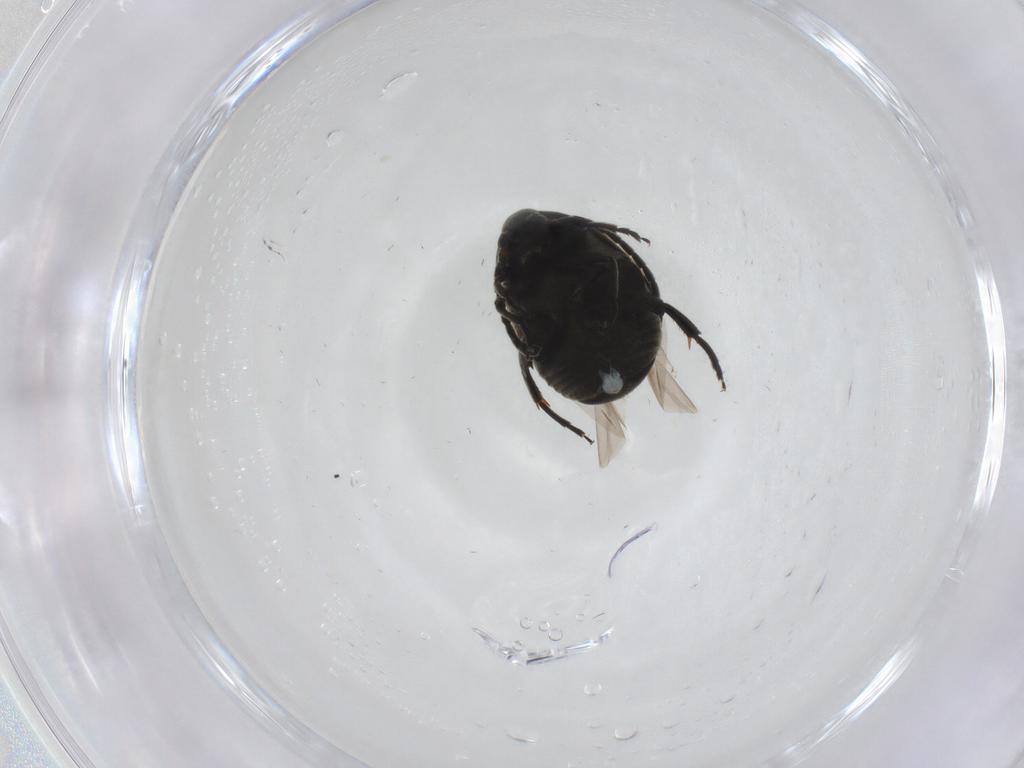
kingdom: Animalia
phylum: Arthropoda
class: Insecta
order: Coleoptera
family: Chrysomelidae
